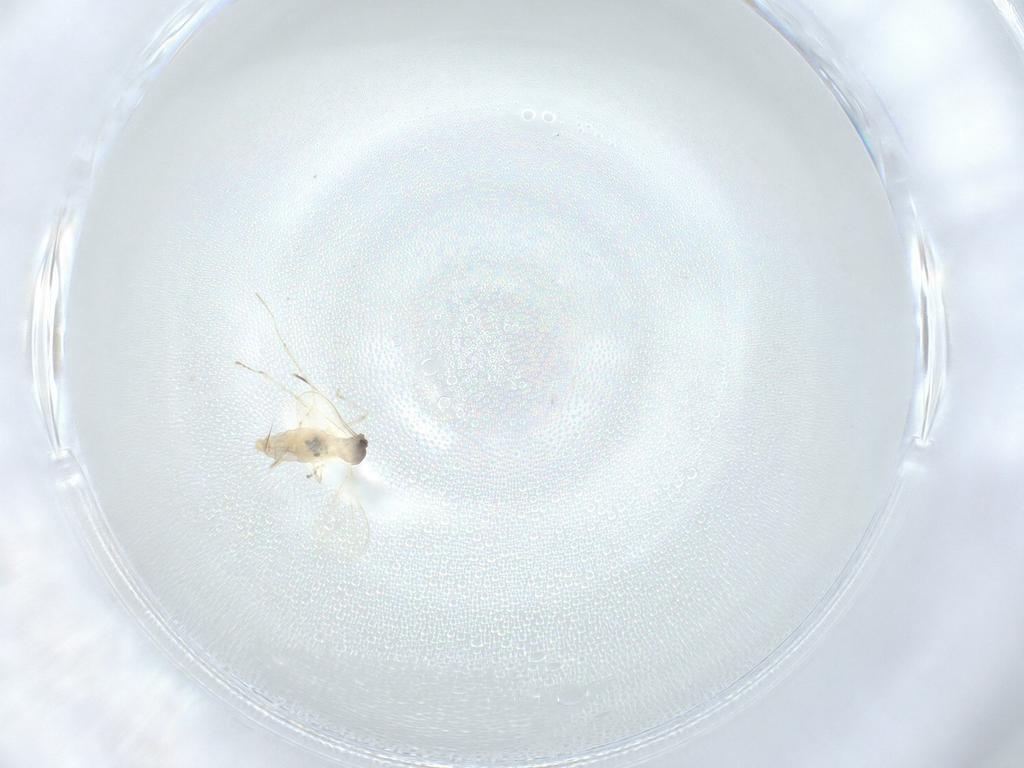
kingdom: Animalia
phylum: Arthropoda
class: Insecta
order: Diptera
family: Cecidomyiidae
